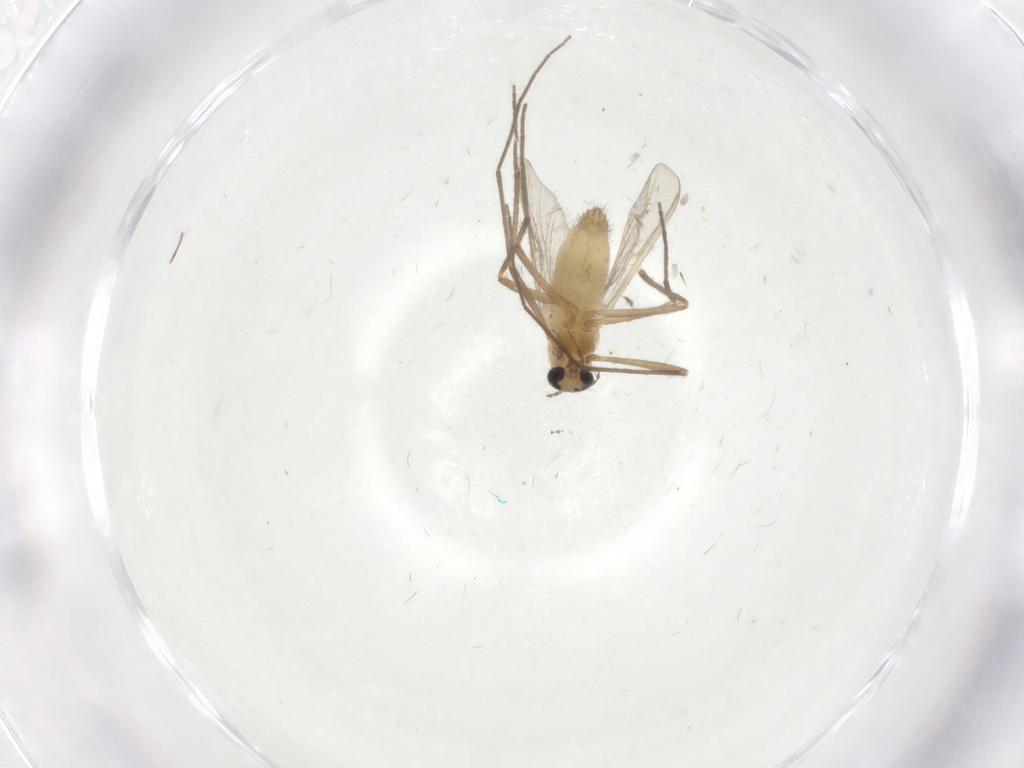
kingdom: Animalia
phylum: Arthropoda
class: Insecta
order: Diptera
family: Chironomidae
